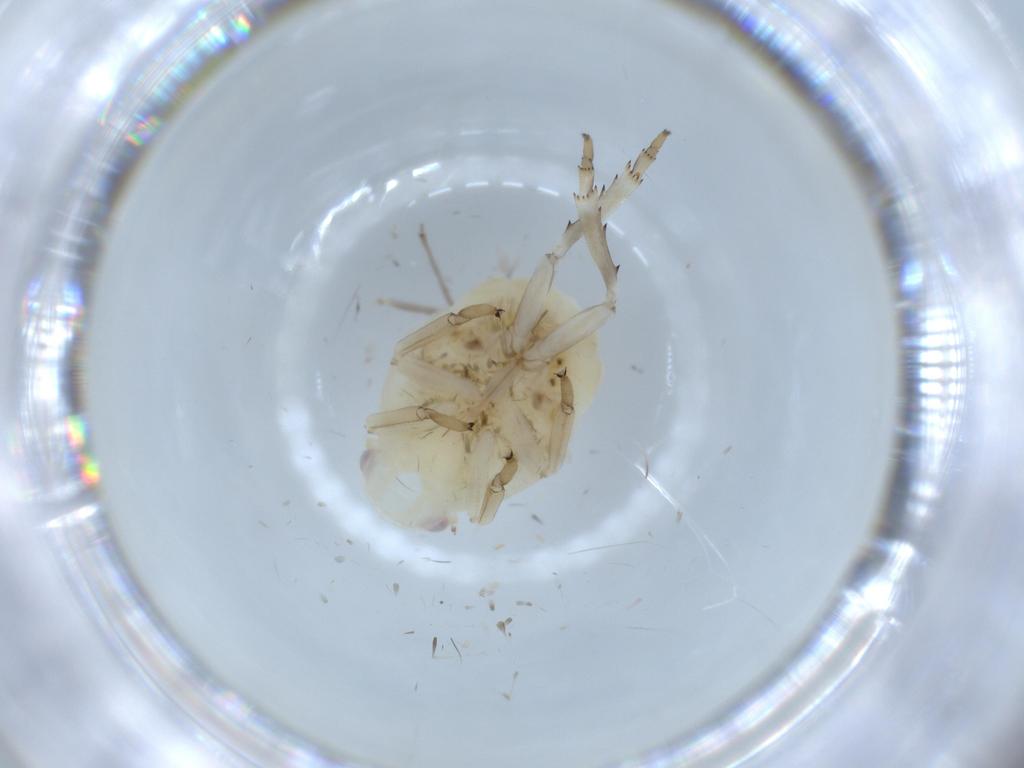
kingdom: Animalia
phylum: Arthropoda
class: Insecta
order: Hemiptera
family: Flatidae
